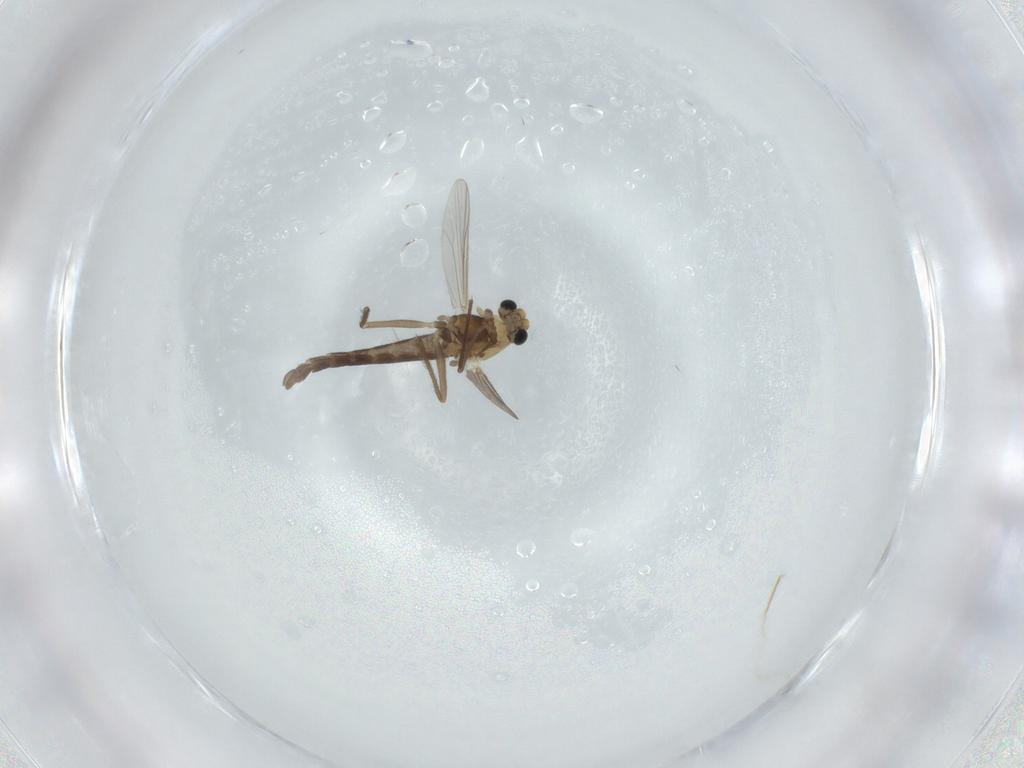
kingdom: Animalia
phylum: Arthropoda
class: Insecta
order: Diptera
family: Chironomidae
